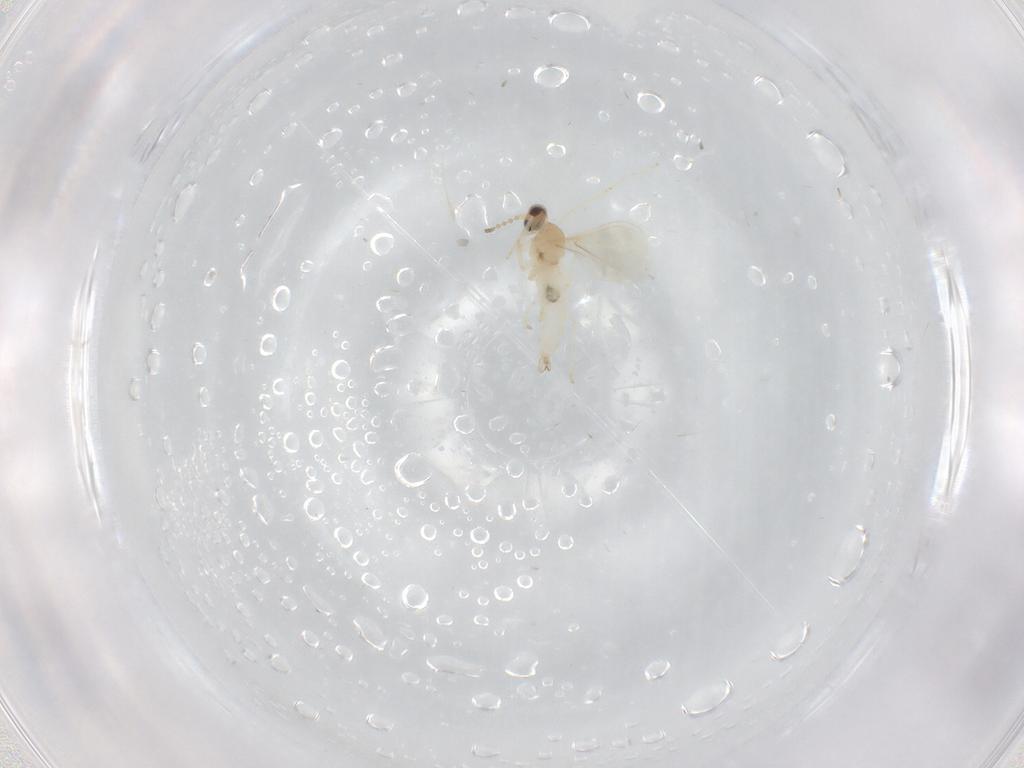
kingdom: Animalia
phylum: Arthropoda
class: Insecta
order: Diptera
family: Cecidomyiidae
